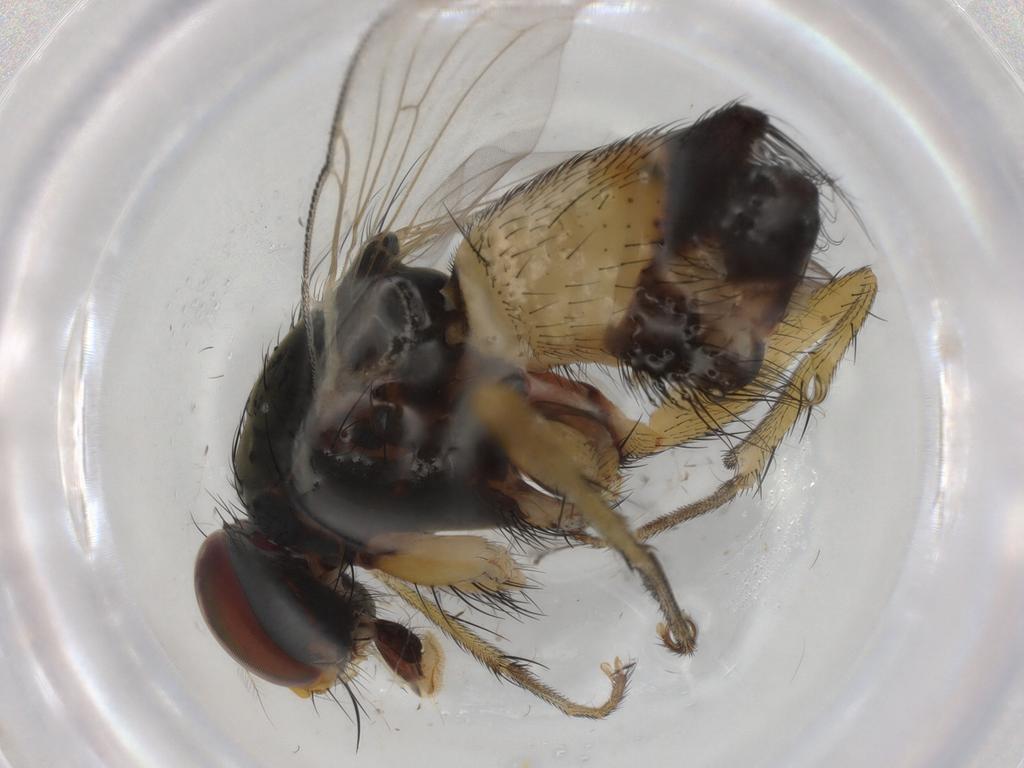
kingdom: Animalia
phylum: Arthropoda
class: Insecta
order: Diptera
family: Muscidae
